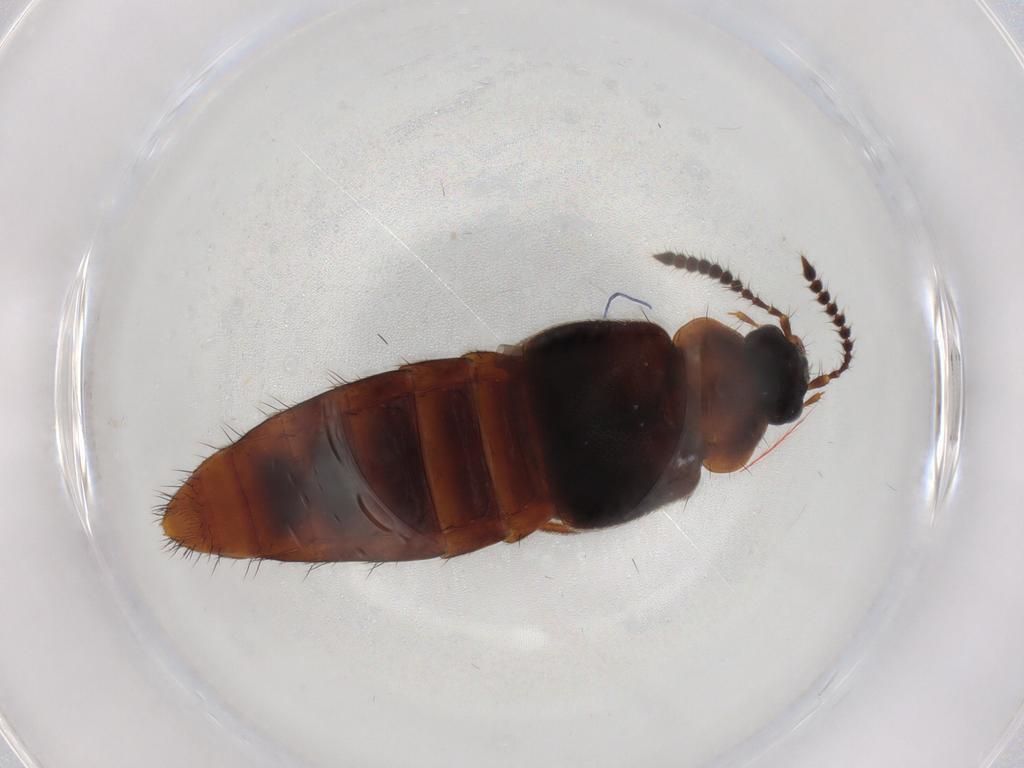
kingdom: Animalia
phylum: Arthropoda
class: Insecta
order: Coleoptera
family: Staphylinidae
